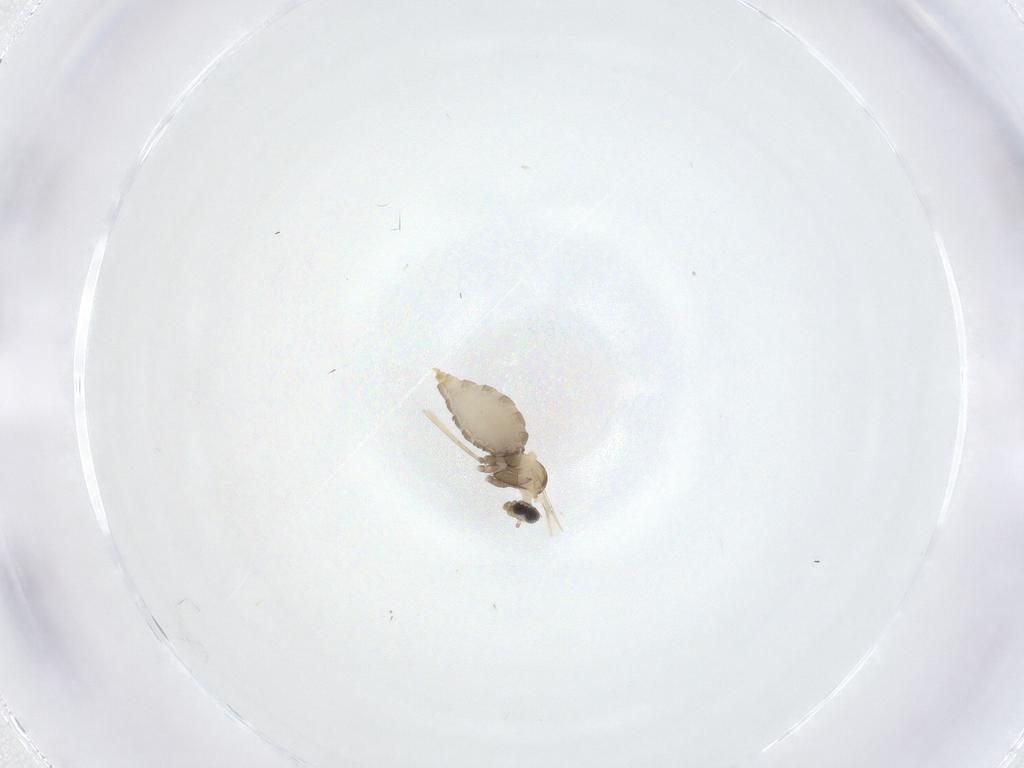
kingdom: Animalia
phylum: Arthropoda
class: Insecta
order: Diptera
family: Cecidomyiidae
